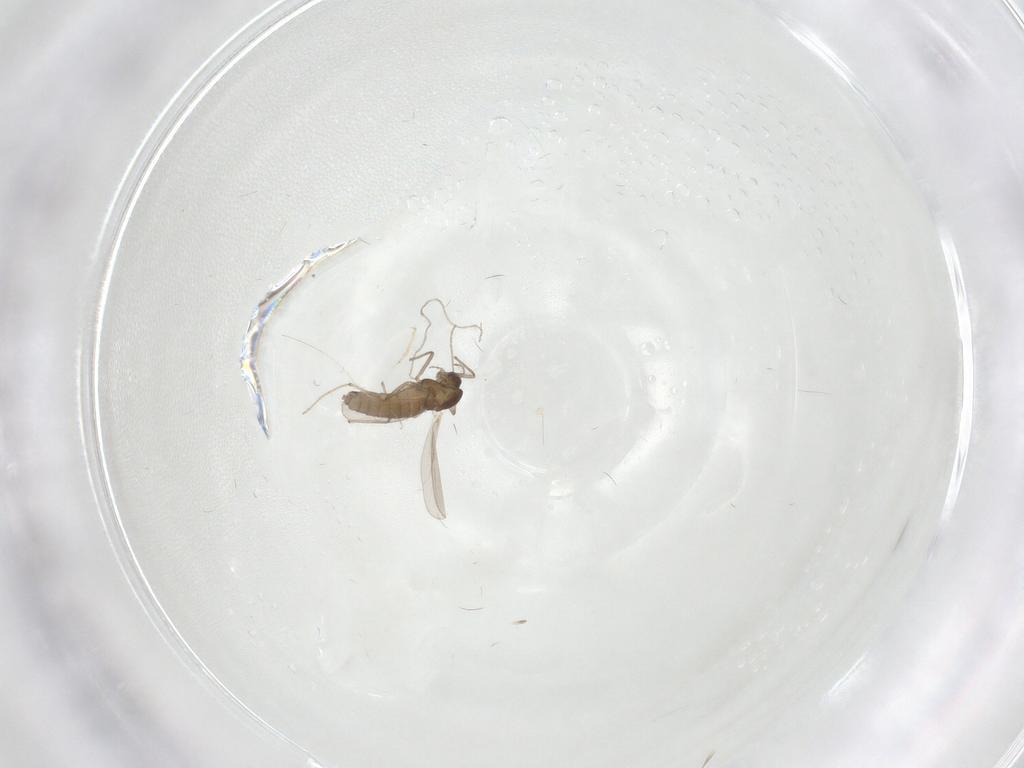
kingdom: Animalia
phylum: Arthropoda
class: Insecta
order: Diptera
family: Chironomidae
